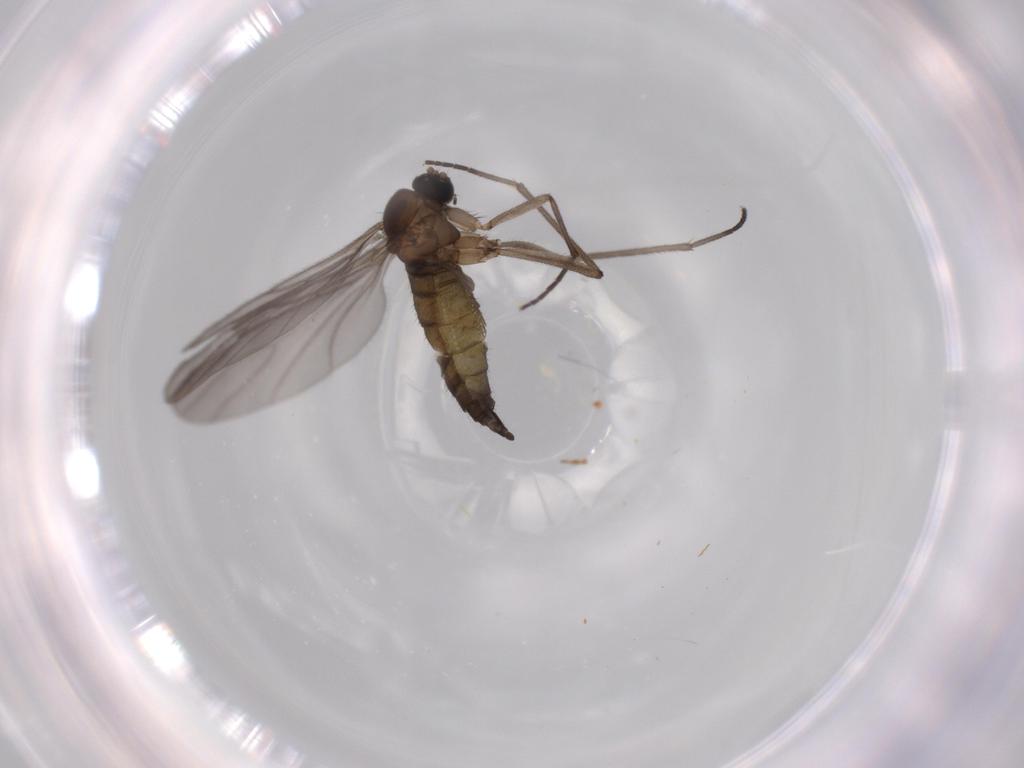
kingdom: Animalia
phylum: Arthropoda
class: Insecta
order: Diptera
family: Sciaridae
